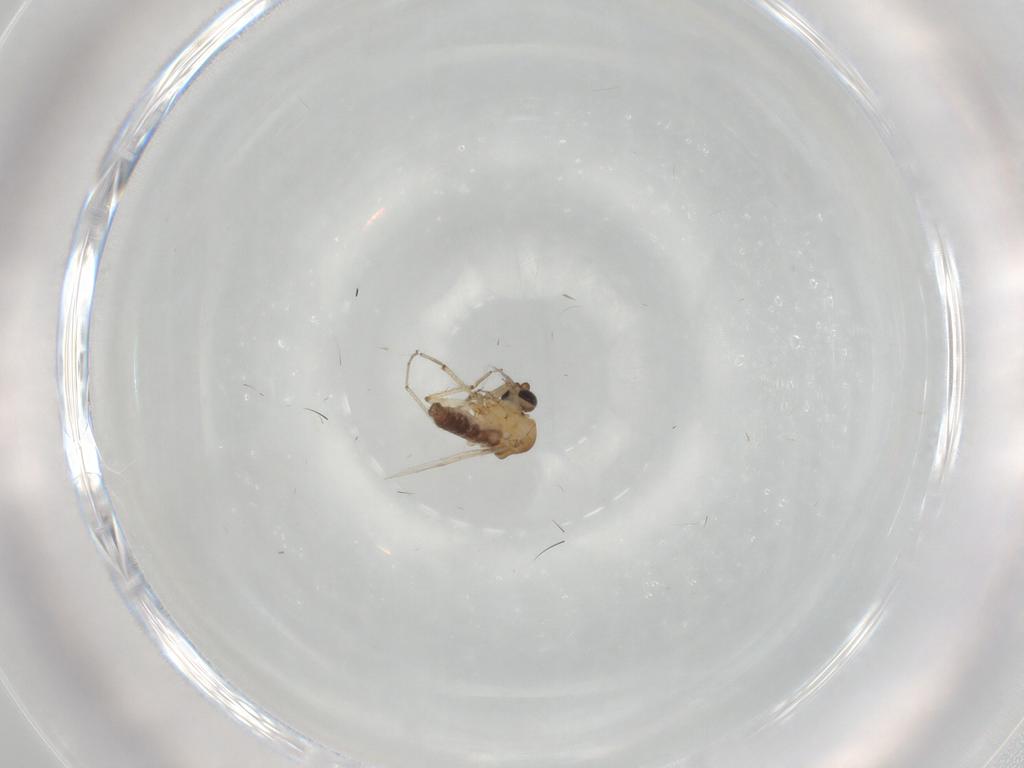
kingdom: Animalia
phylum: Arthropoda
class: Insecta
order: Diptera
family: Ceratopogonidae
